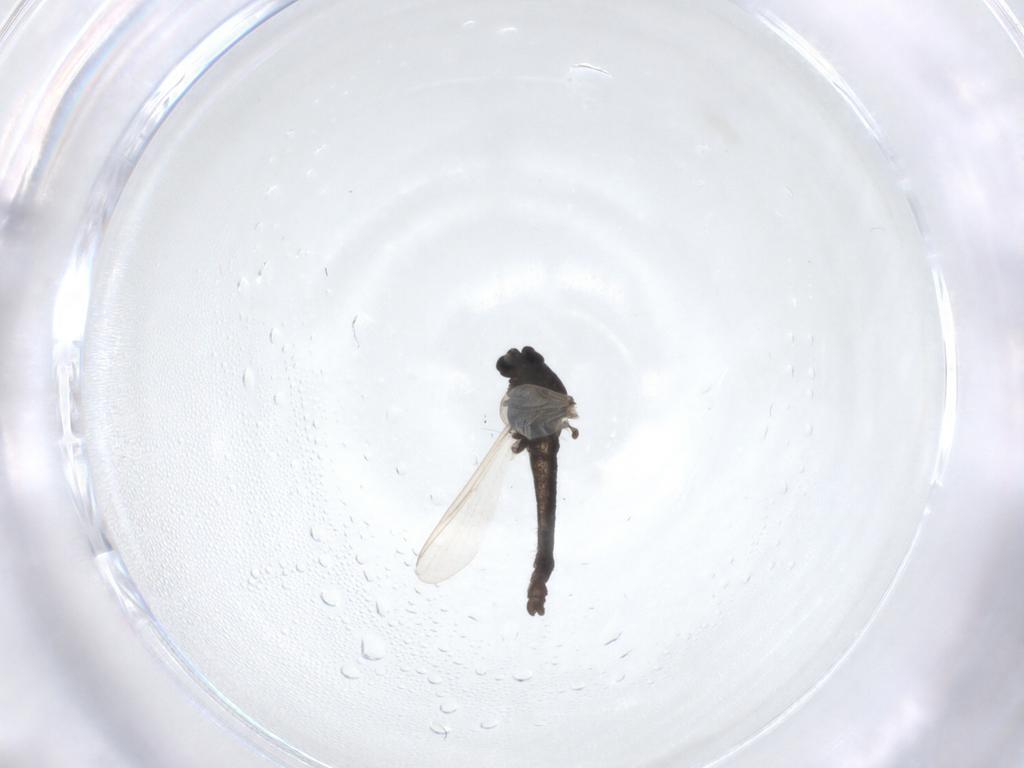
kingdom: Animalia
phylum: Arthropoda
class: Insecta
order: Diptera
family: Chironomidae
